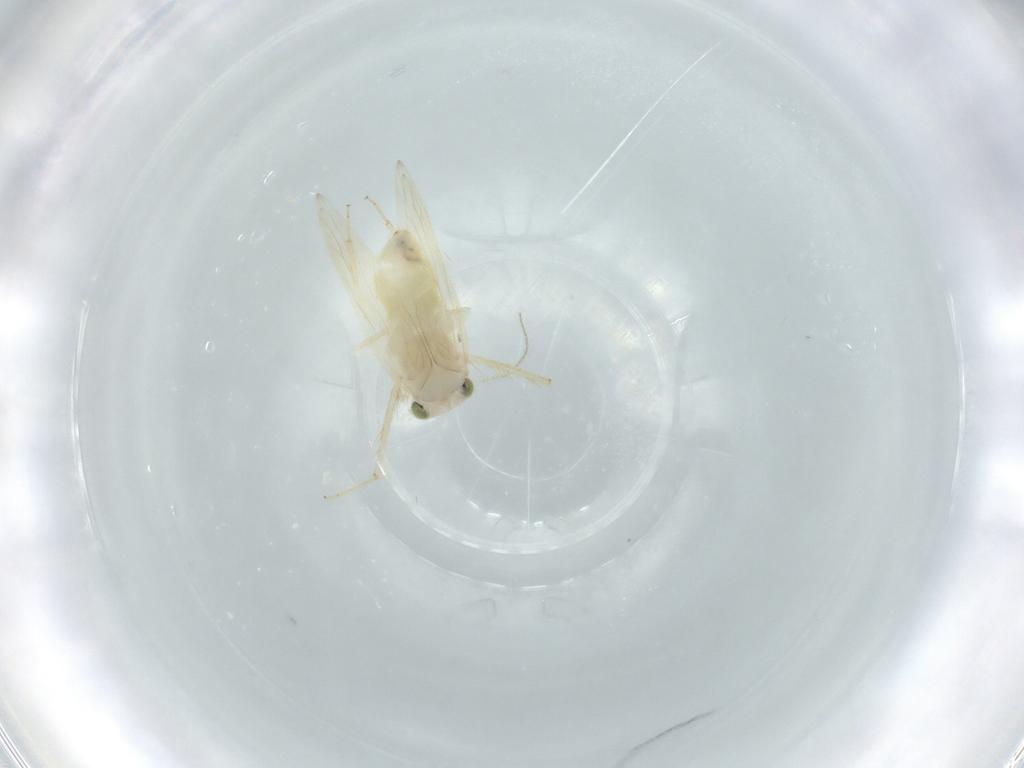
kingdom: Animalia
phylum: Arthropoda
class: Insecta
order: Psocodea
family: Lepidopsocidae
